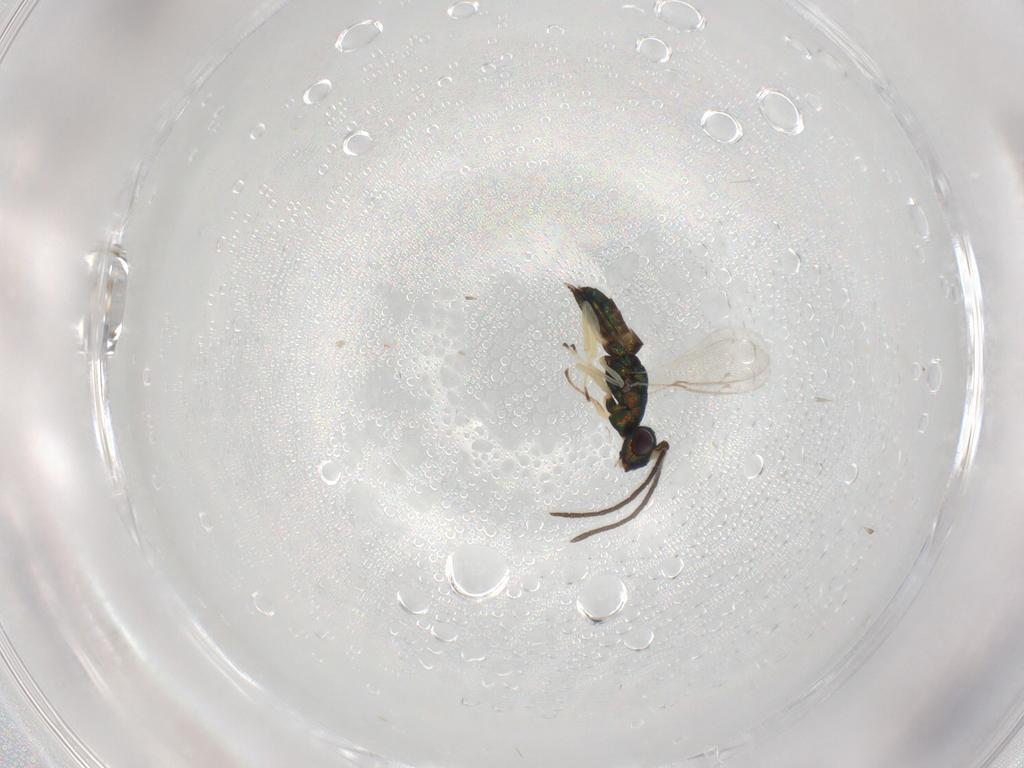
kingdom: Animalia
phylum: Arthropoda
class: Insecta
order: Hymenoptera
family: Pteromalidae
